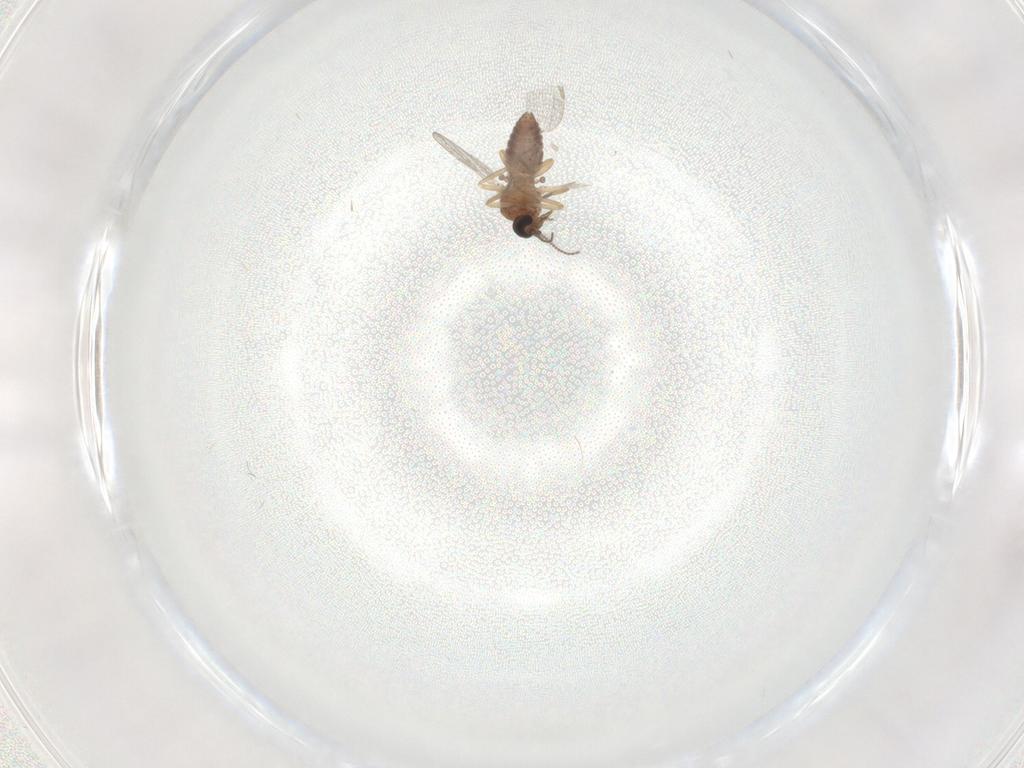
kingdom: Animalia
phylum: Arthropoda
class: Insecta
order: Diptera
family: Ceratopogonidae
